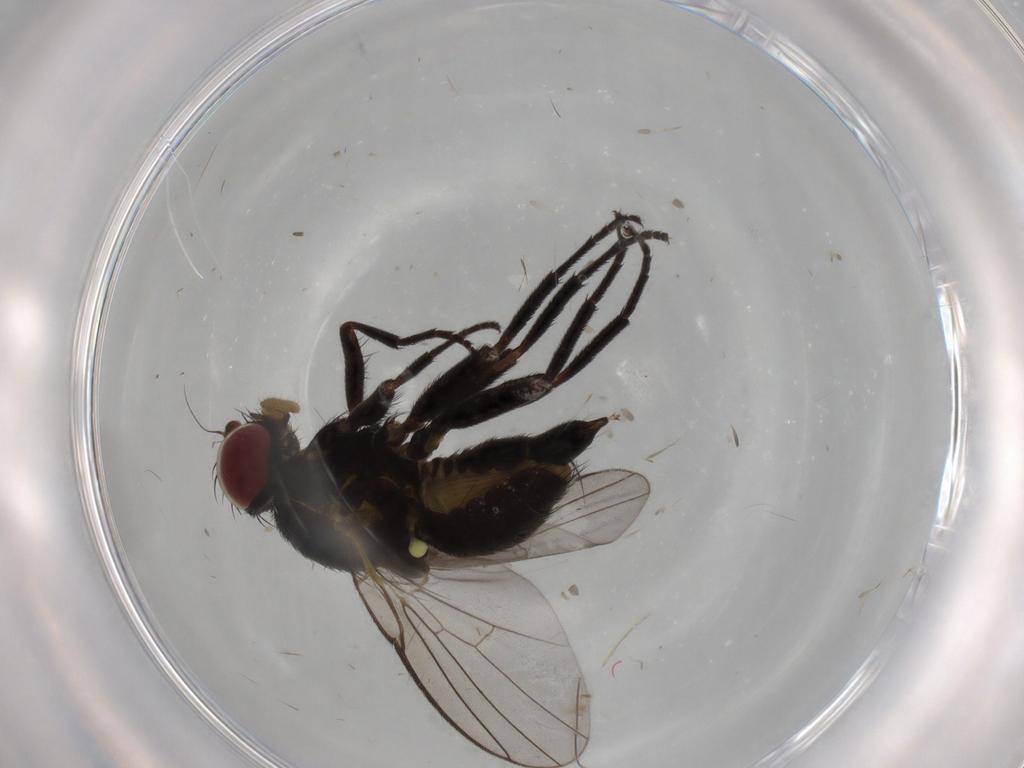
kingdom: Animalia
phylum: Arthropoda
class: Insecta
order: Diptera
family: Agromyzidae
